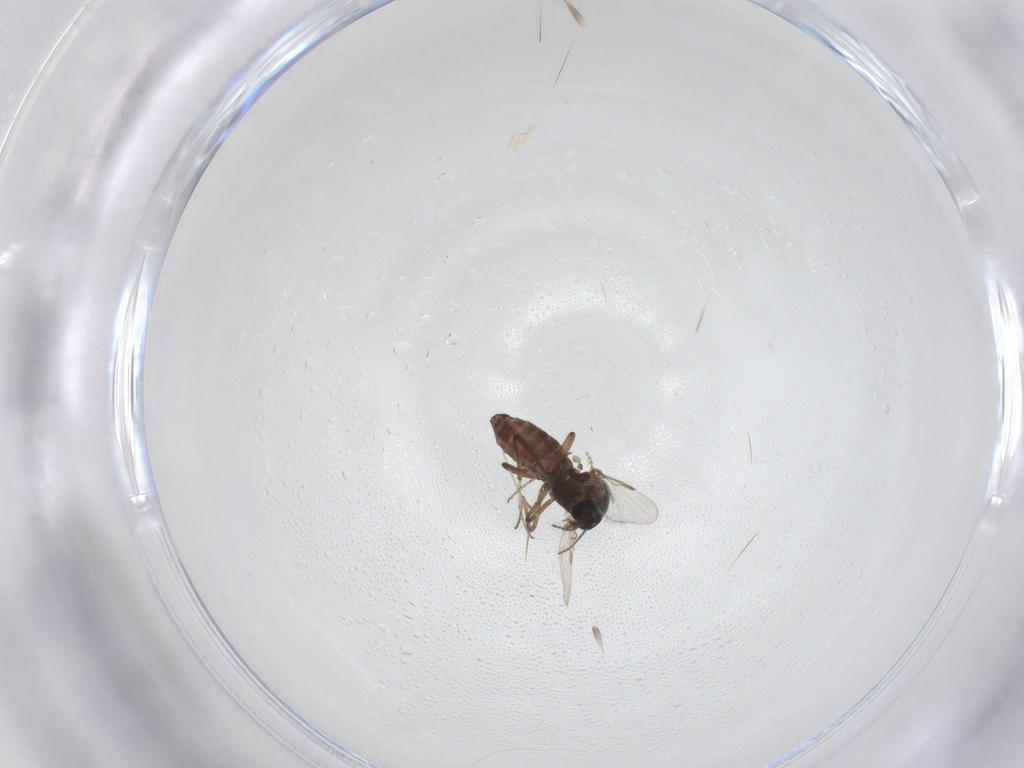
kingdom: Animalia
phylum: Arthropoda
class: Insecta
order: Diptera
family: Ceratopogonidae
